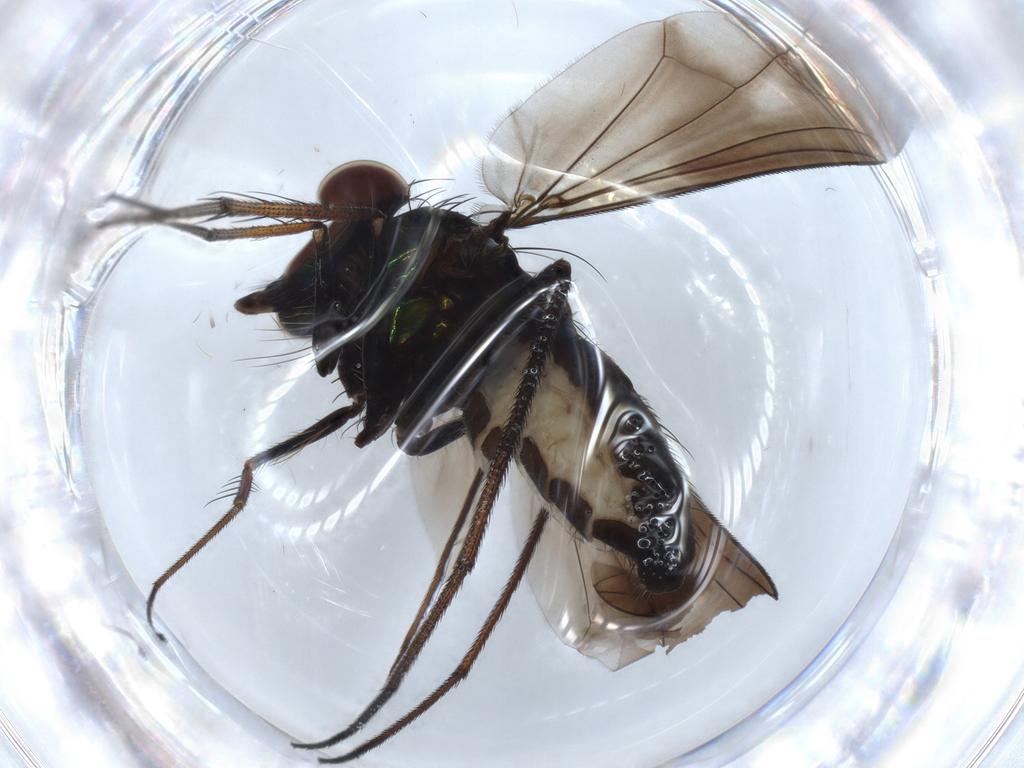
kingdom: Animalia
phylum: Arthropoda
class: Insecta
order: Diptera
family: Dolichopodidae
